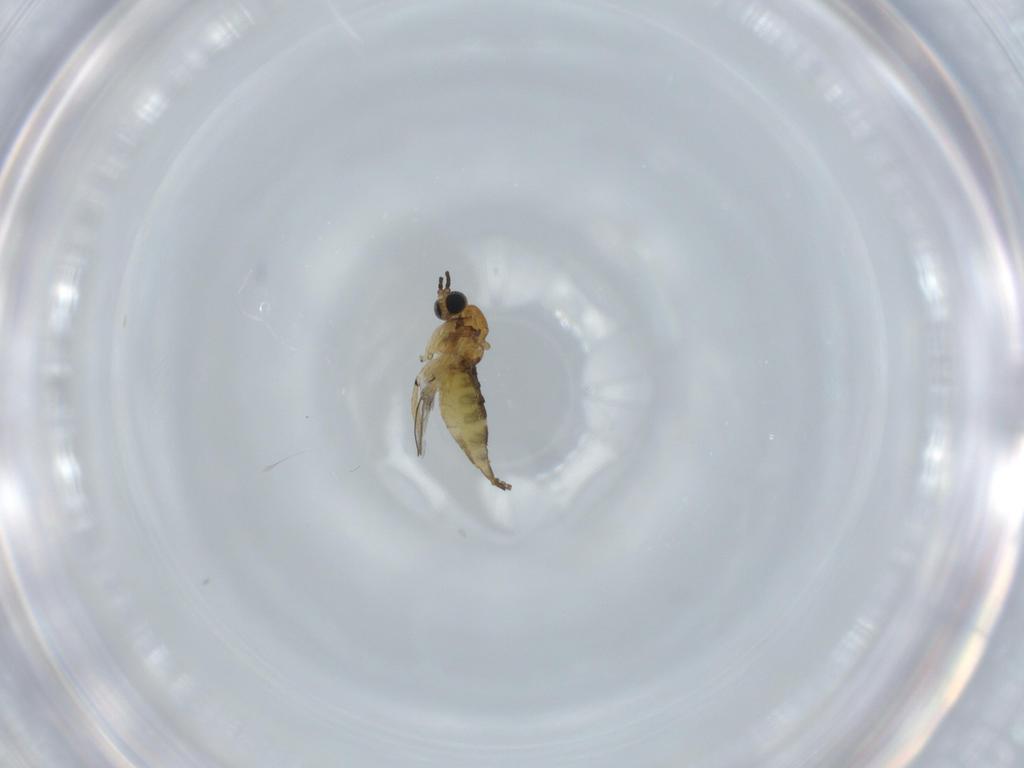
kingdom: Animalia
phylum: Arthropoda
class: Insecta
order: Diptera
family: Sciaridae
